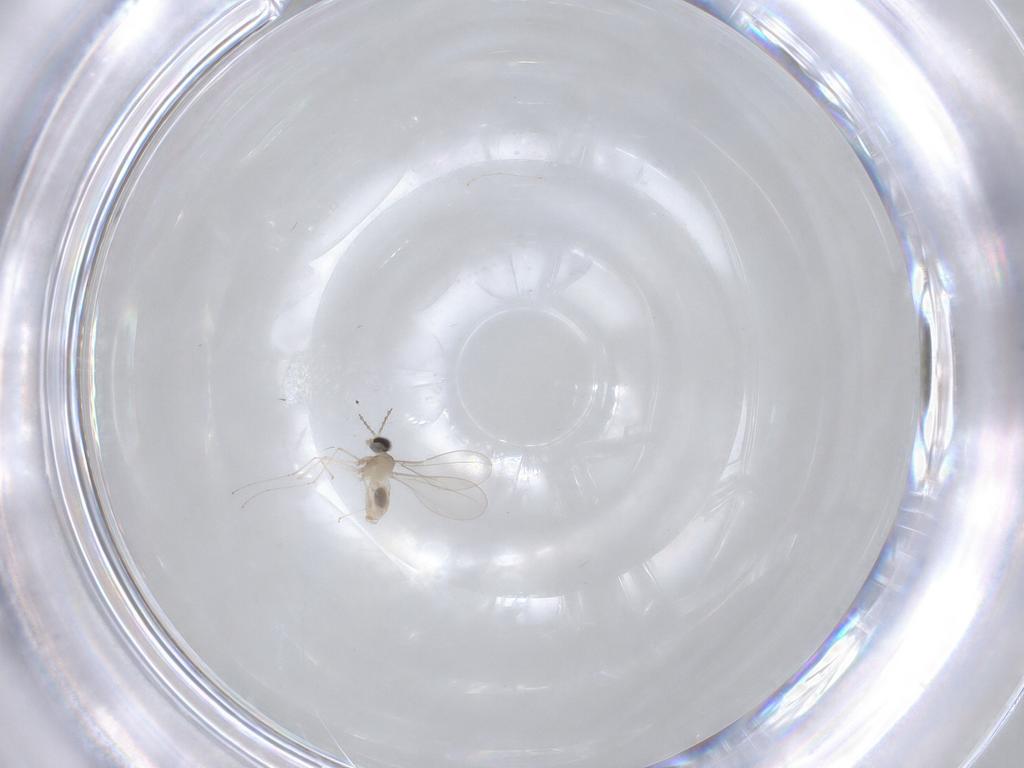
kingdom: Animalia
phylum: Arthropoda
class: Insecta
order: Diptera
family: Cecidomyiidae
